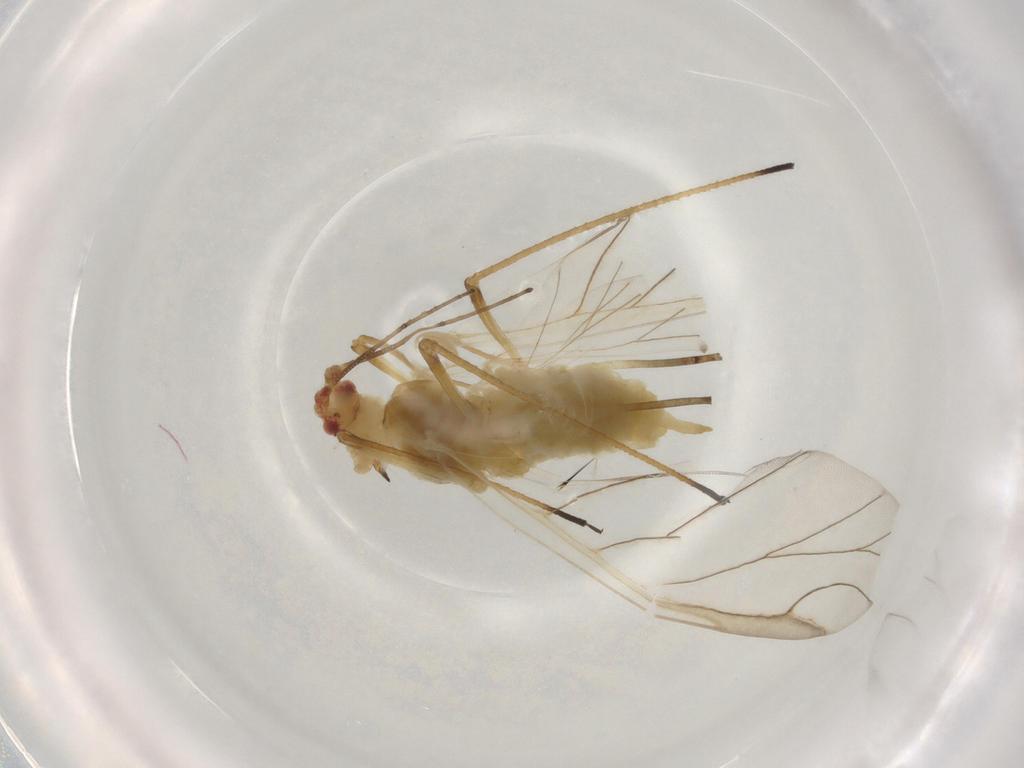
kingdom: Animalia
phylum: Arthropoda
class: Insecta
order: Hemiptera
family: Aphididae
